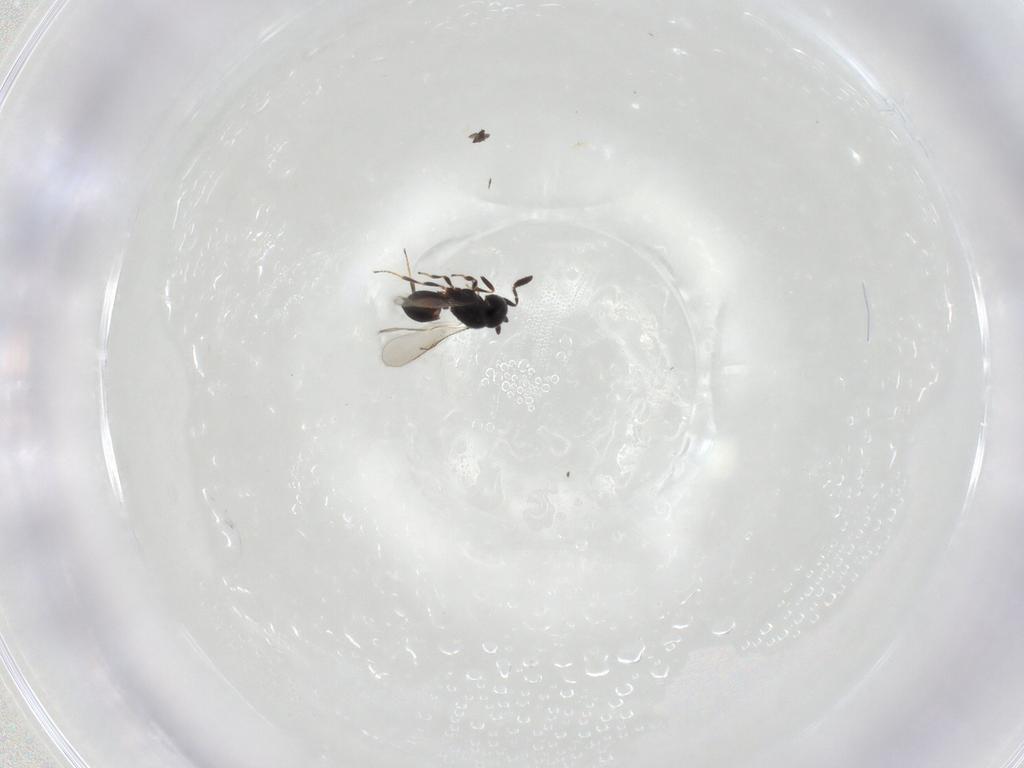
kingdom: Animalia
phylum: Arthropoda
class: Insecta
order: Hymenoptera
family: Scelionidae
